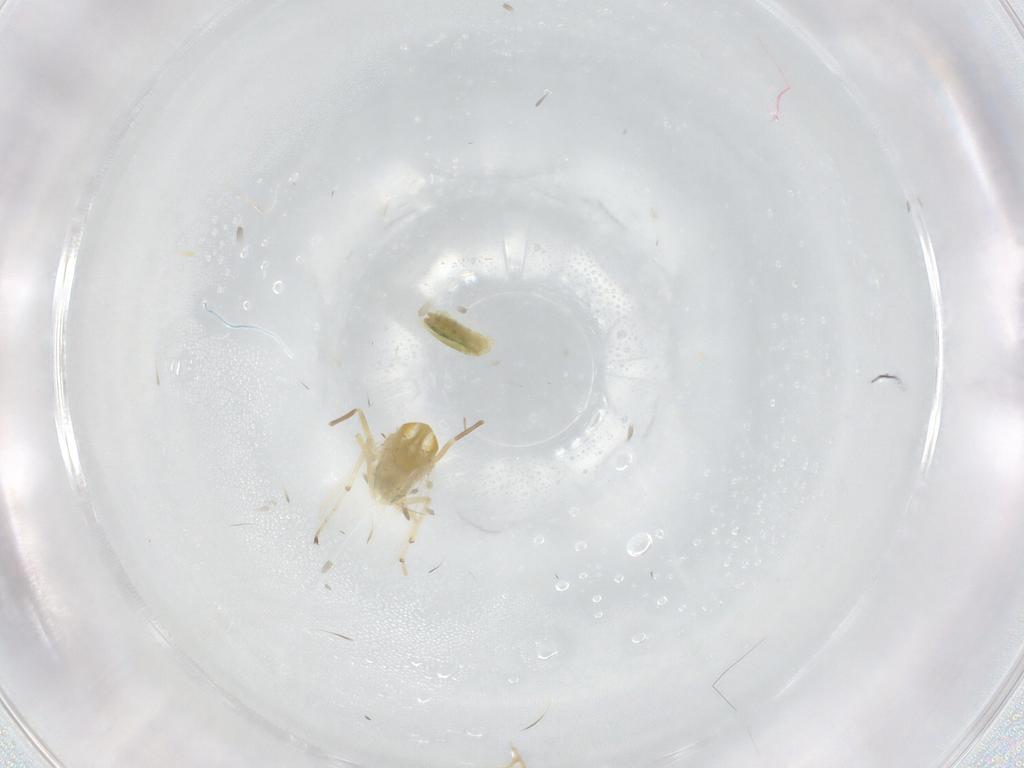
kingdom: Animalia
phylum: Arthropoda
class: Insecta
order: Diptera
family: Chironomidae
